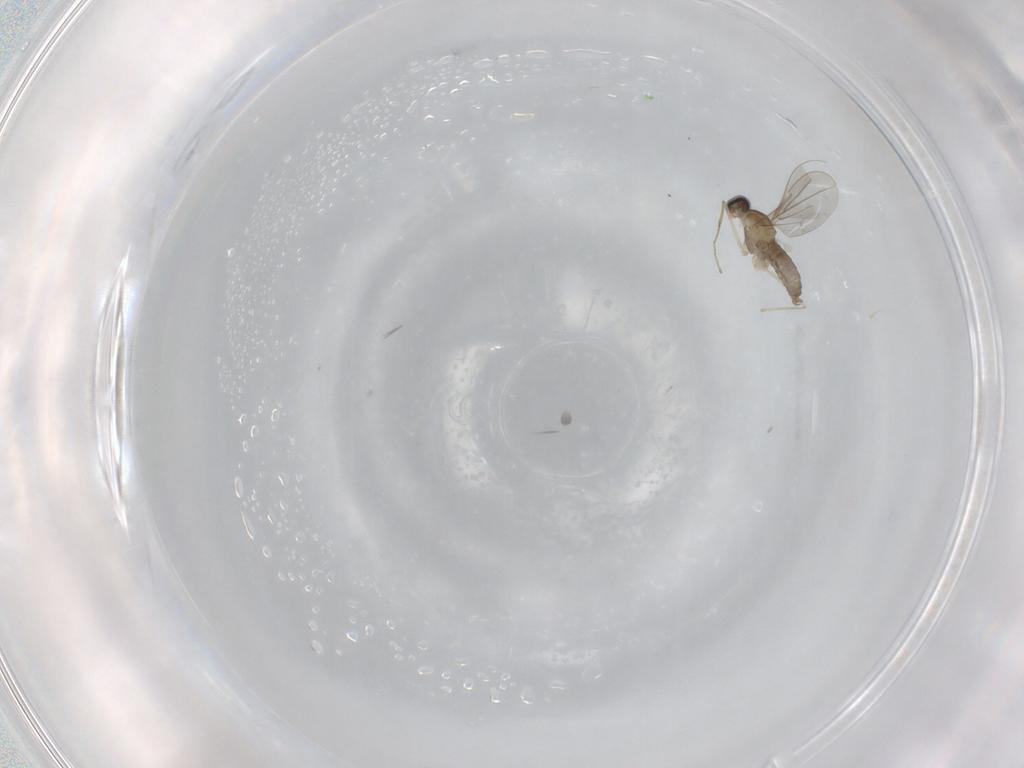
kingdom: Animalia
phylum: Arthropoda
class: Insecta
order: Diptera
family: Cecidomyiidae
